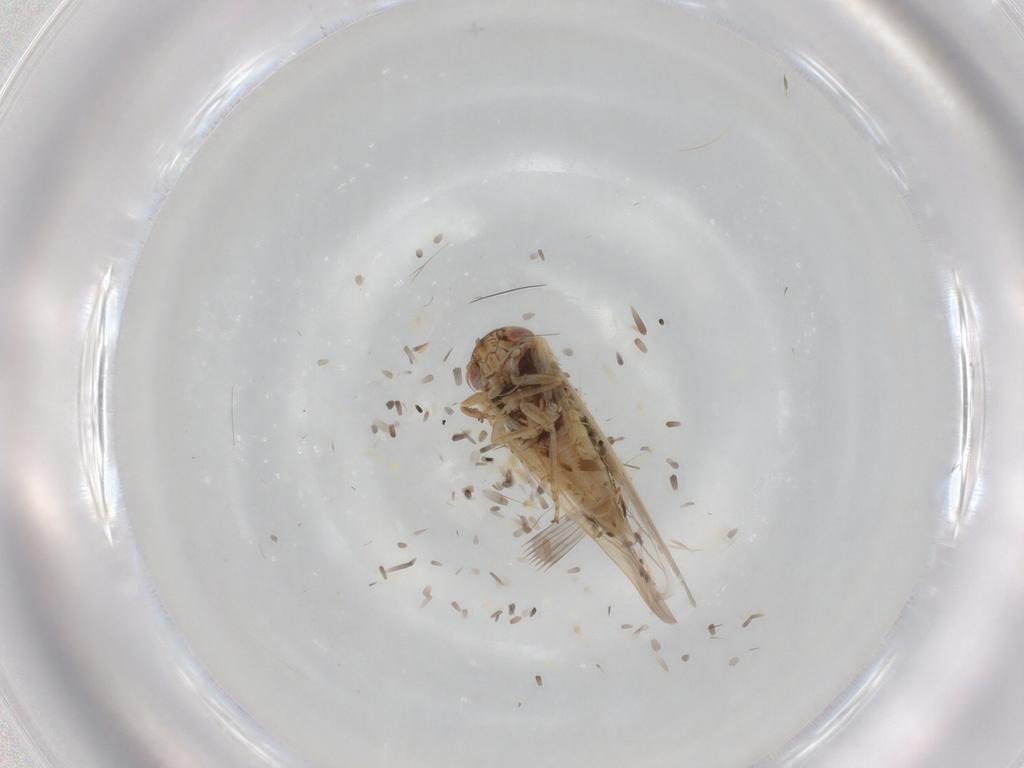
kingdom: Animalia
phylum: Arthropoda
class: Insecta
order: Hemiptera
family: Cicadellidae
